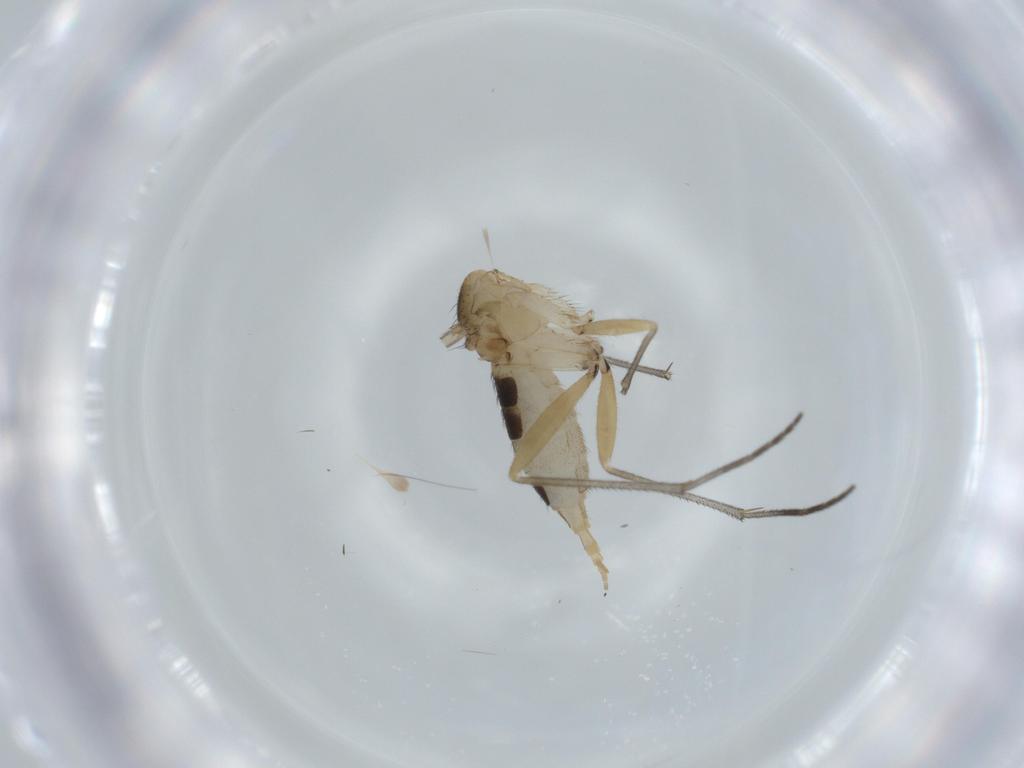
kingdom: Animalia
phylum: Arthropoda
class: Insecta
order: Diptera
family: Sciaridae
